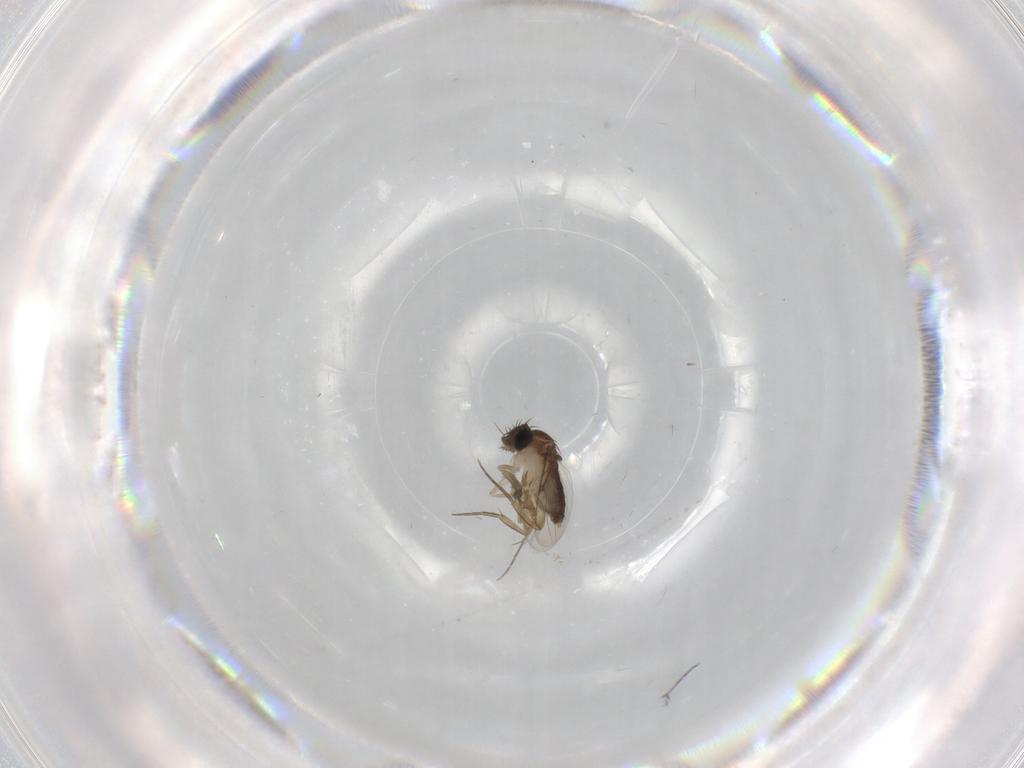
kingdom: Animalia
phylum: Arthropoda
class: Insecta
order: Diptera
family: Phoridae
